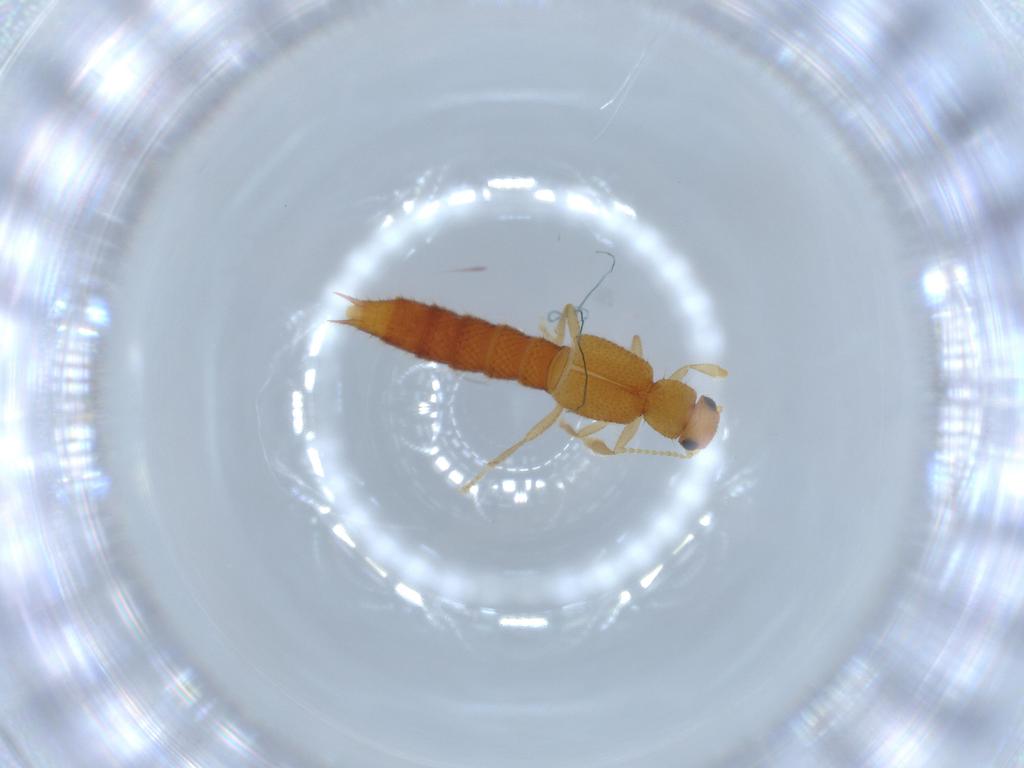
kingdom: Animalia
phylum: Arthropoda
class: Insecta
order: Coleoptera
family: Staphylinidae
